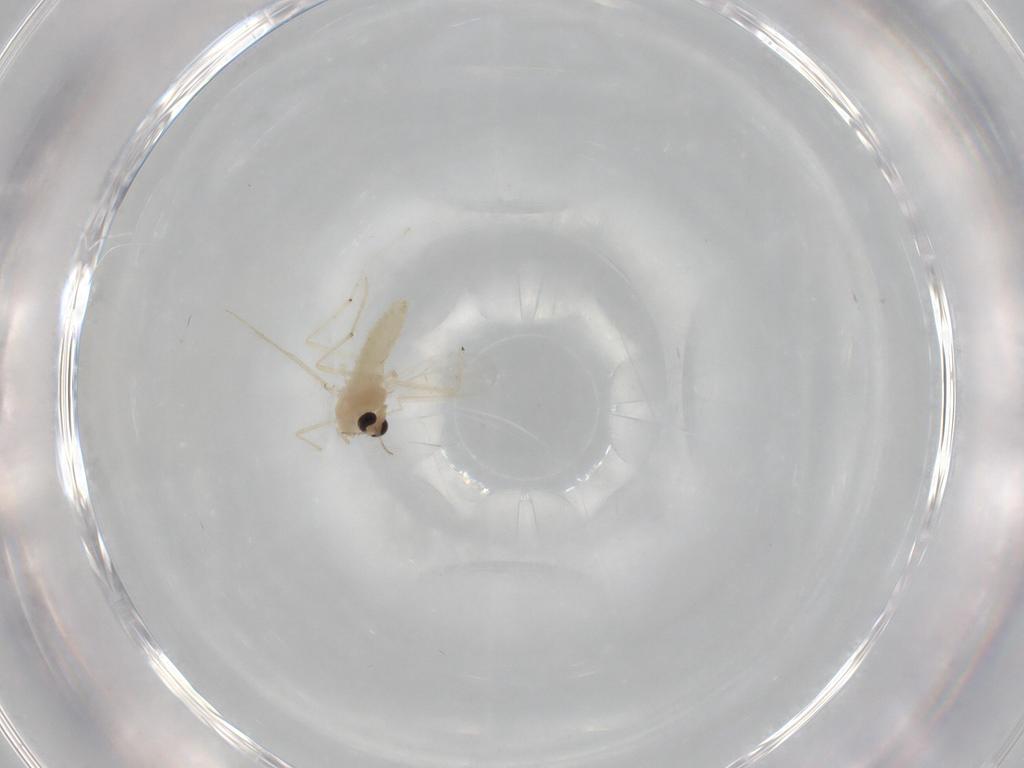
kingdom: Animalia
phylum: Arthropoda
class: Insecta
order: Diptera
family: Chironomidae
